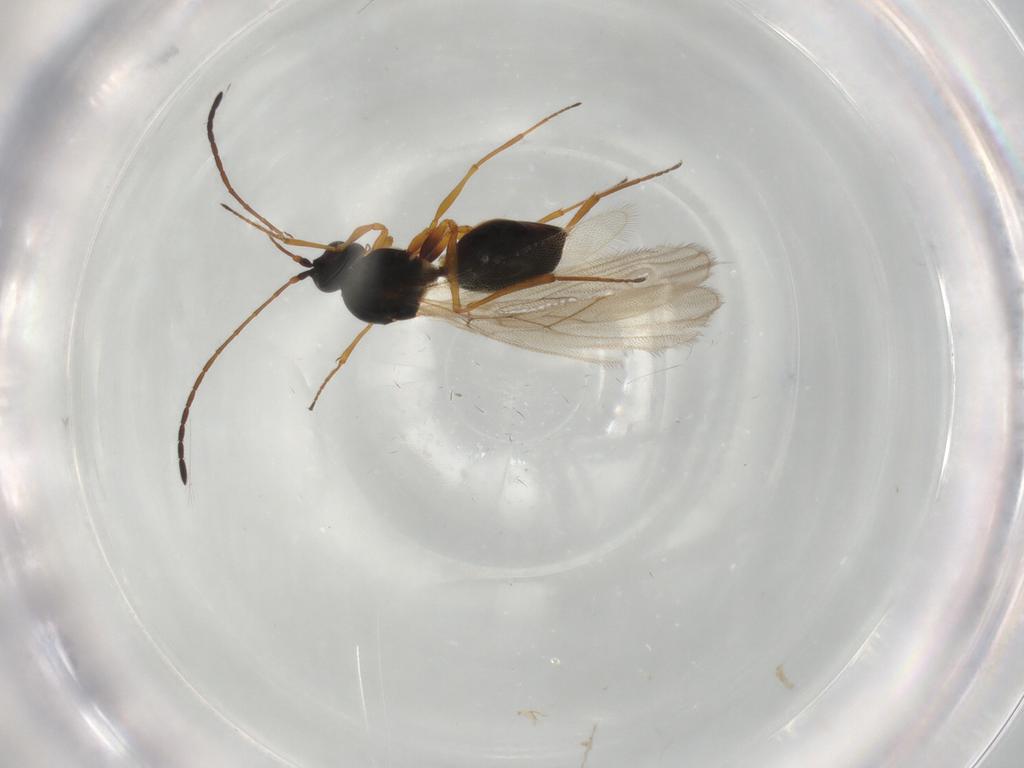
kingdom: Animalia
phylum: Arthropoda
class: Insecta
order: Hymenoptera
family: Figitidae
